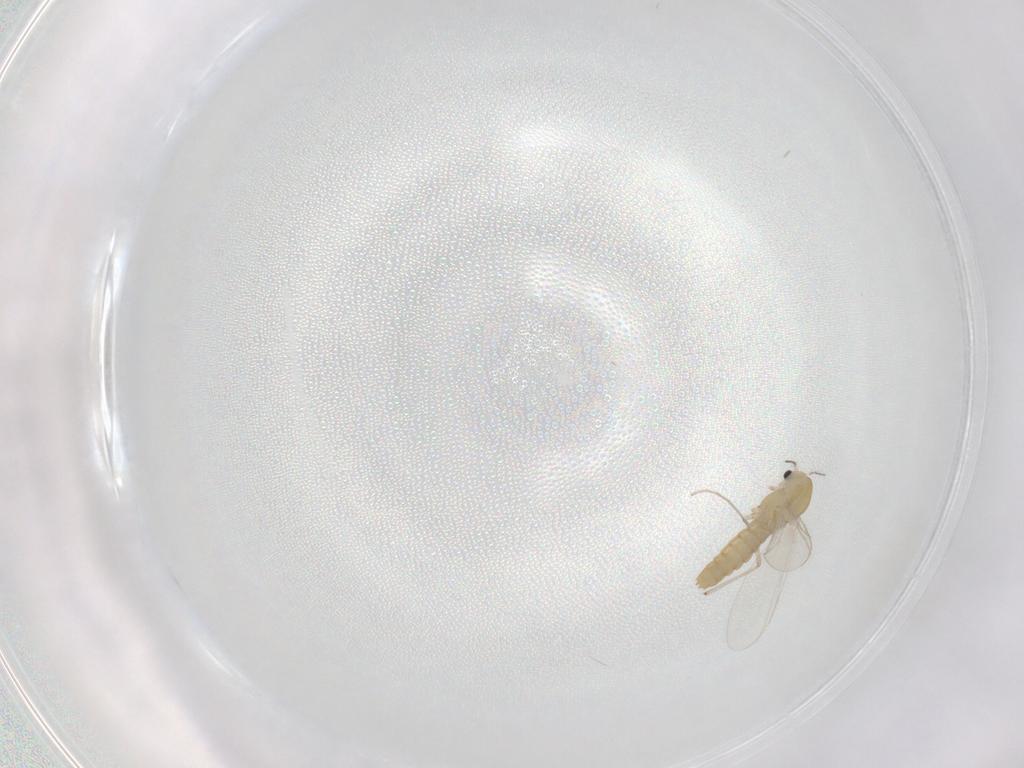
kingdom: Animalia
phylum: Arthropoda
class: Insecta
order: Diptera
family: Chironomidae
